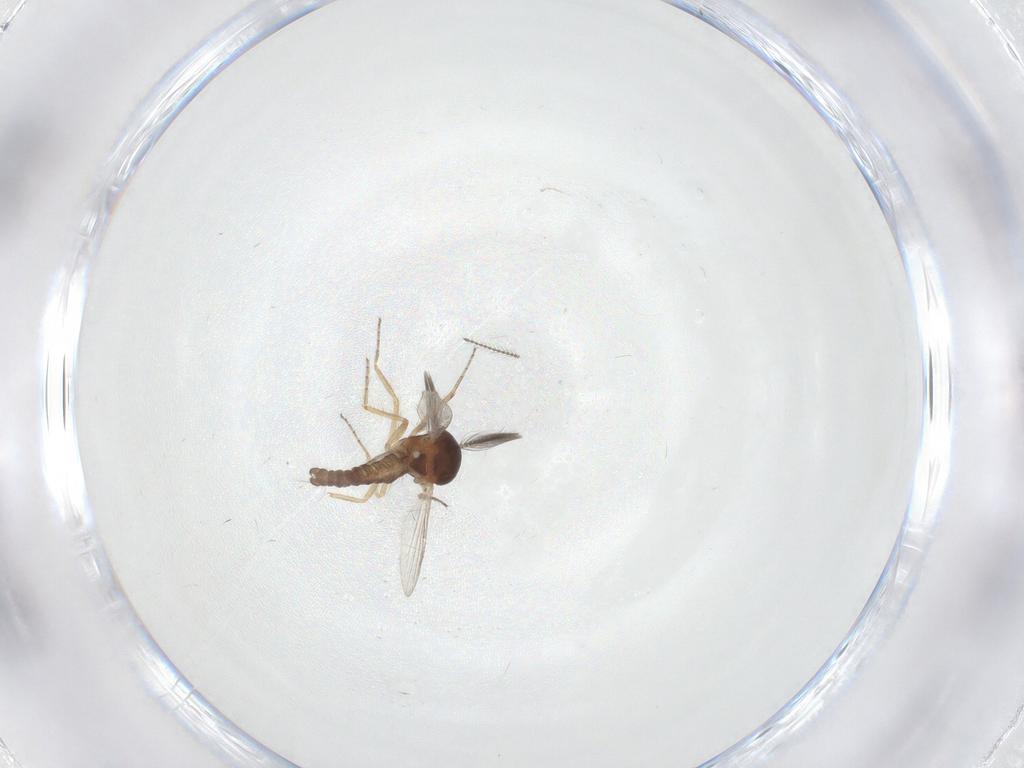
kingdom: Animalia
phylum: Arthropoda
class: Insecta
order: Diptera
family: Ceratopogonidae
